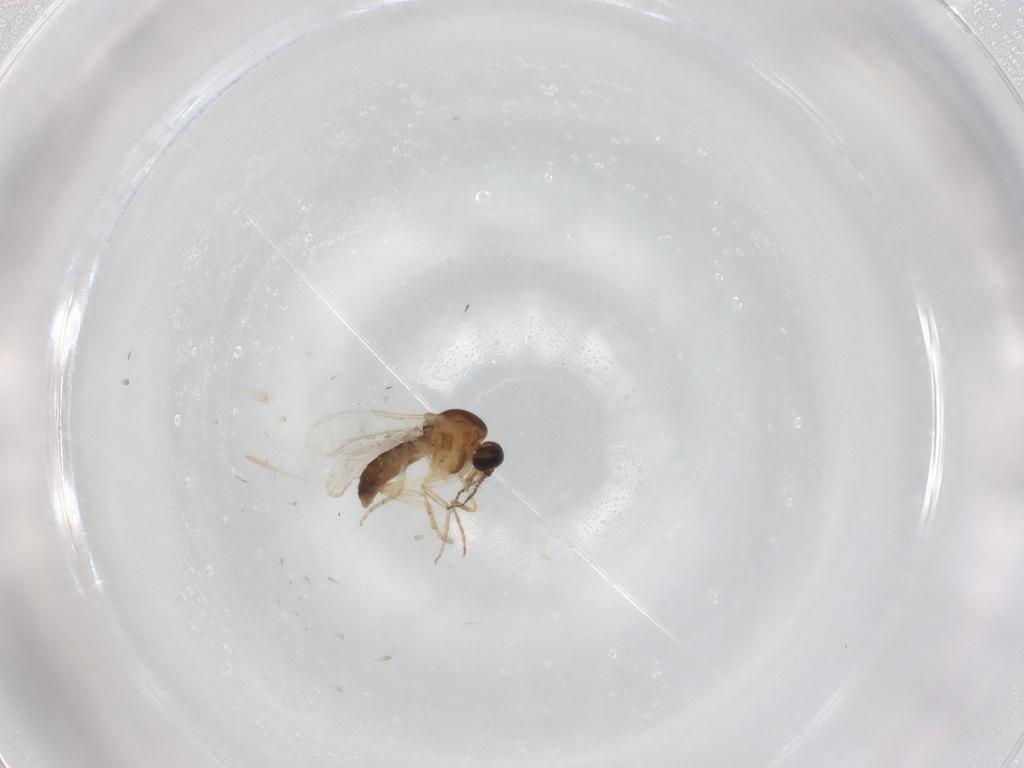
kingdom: Animalia
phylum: Arthropoda
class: Insecta
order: Diptera
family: Ceratopogonidae
